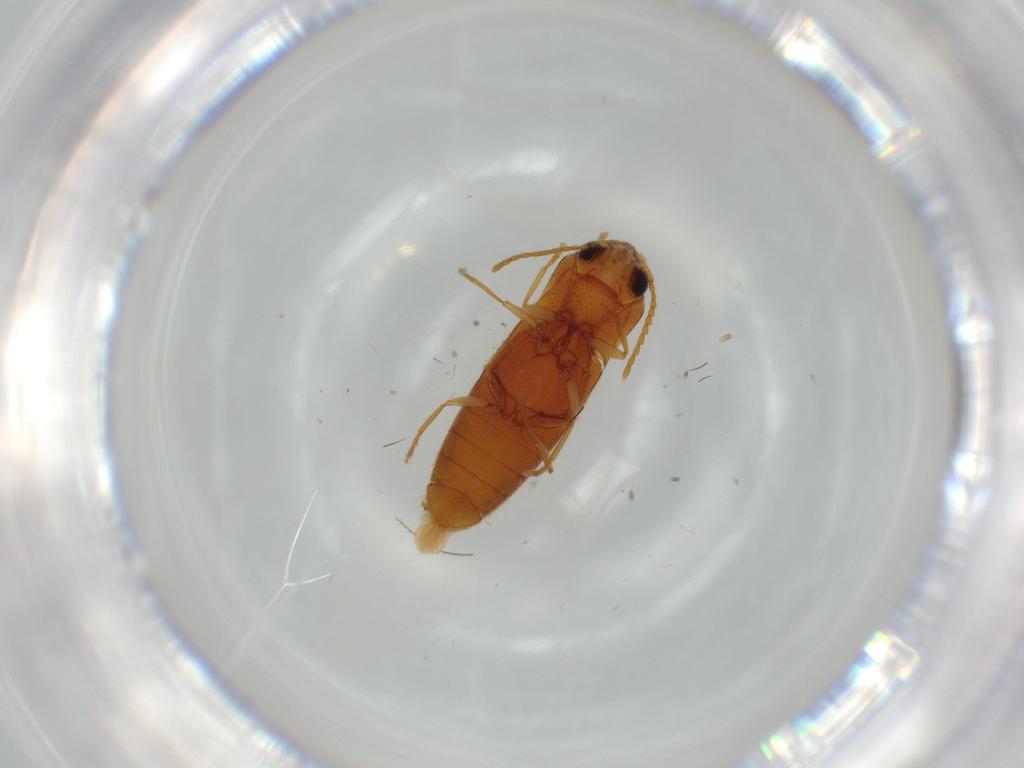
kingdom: Animalia
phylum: Arthropoda
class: Insecta
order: Coleoptera
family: Elateridae
